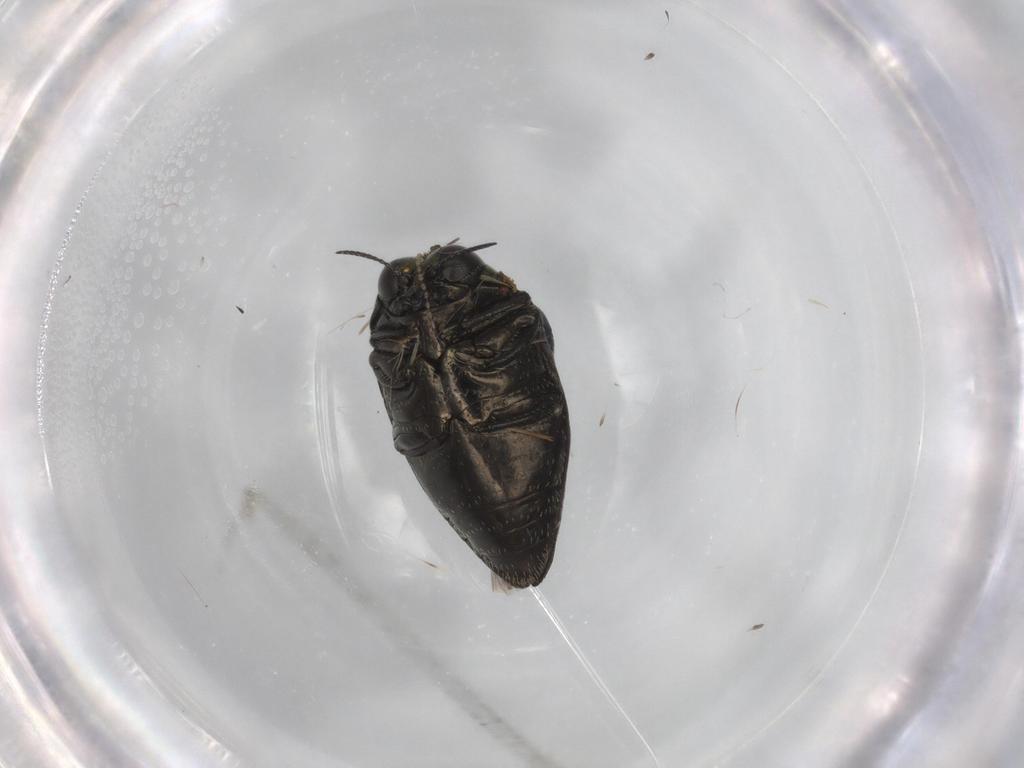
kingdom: Animalia
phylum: Arthropoda
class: Insecta
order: Coleoptera
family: Buprestidae
